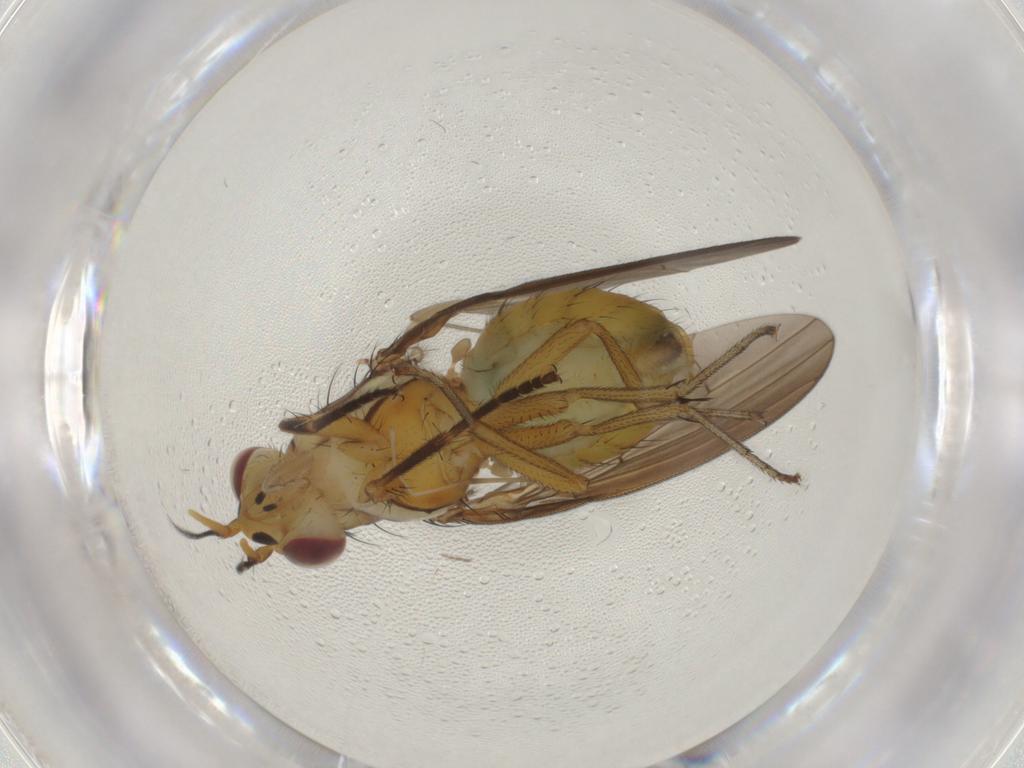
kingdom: Animalia
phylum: Arthropoda
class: Insecta
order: Diptera
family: Lauxaniidae
